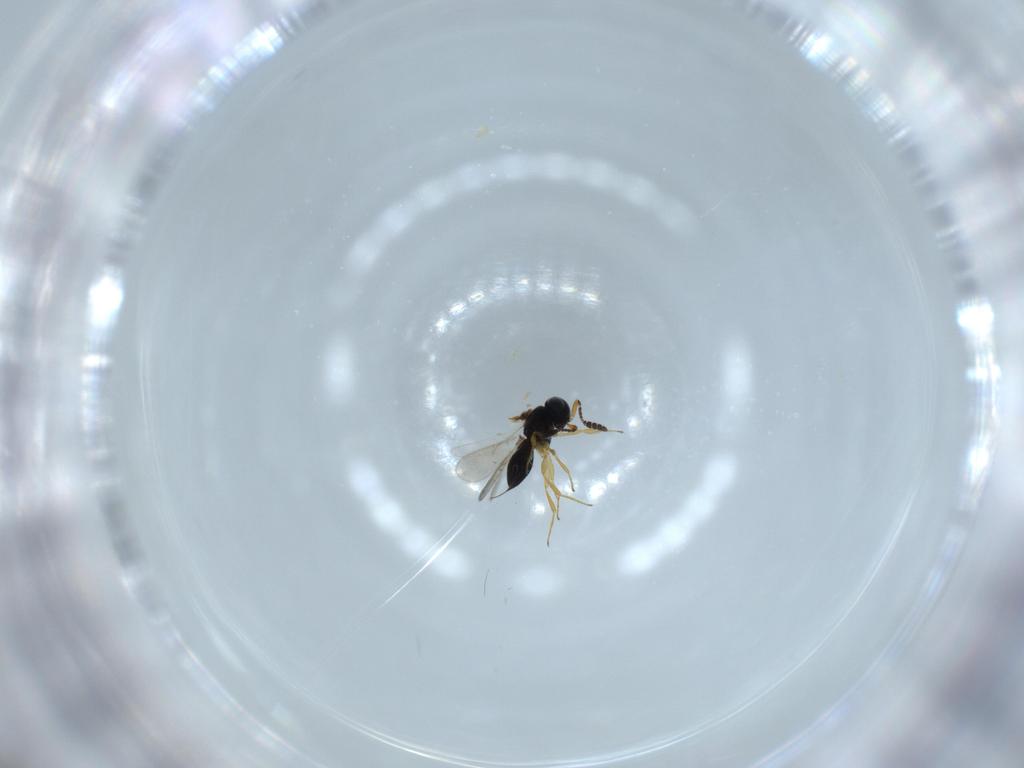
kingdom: Animalia
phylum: Arthropoda
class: Insecta
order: Hymenoptera
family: Scelionidae
